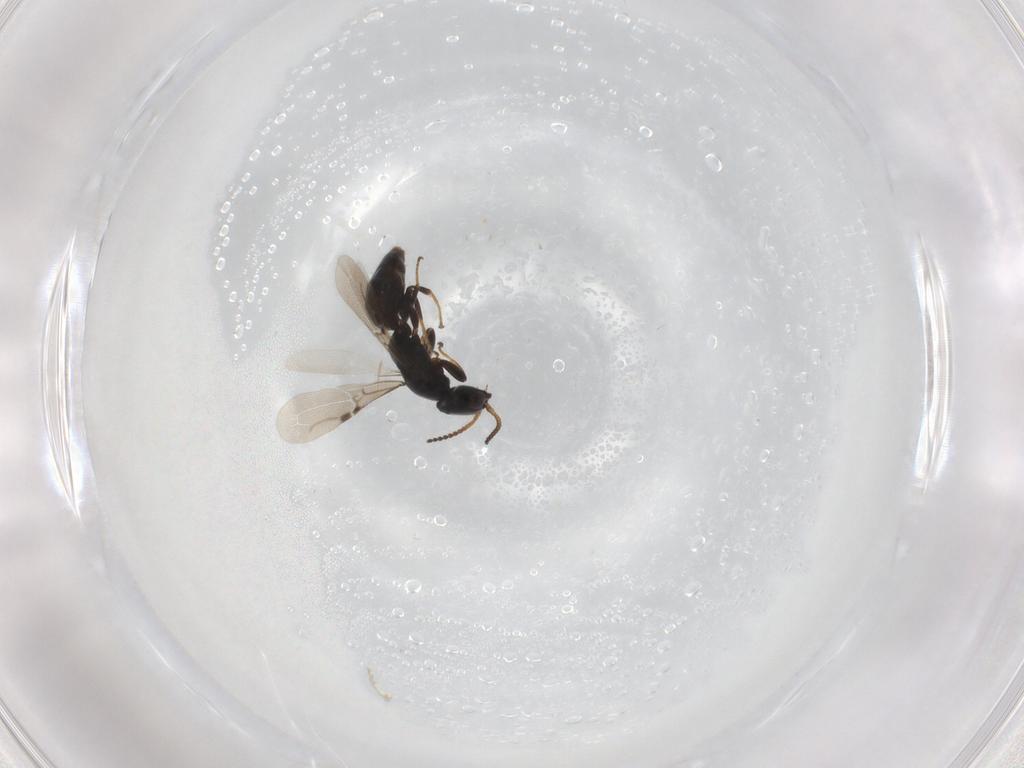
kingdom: Animalia
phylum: Arthropoda
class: Insecta
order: Hymenoptera
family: Bethylidae
